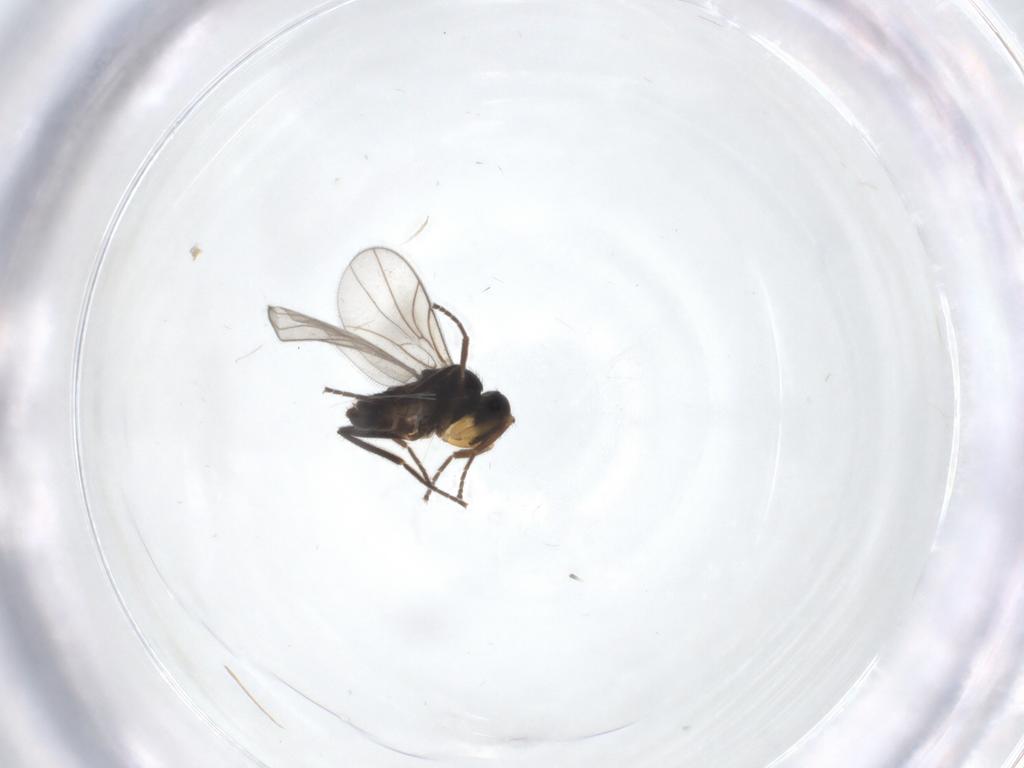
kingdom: Animalia
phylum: Arthropoda
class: Insecta
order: Diptera
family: Hybotidae
